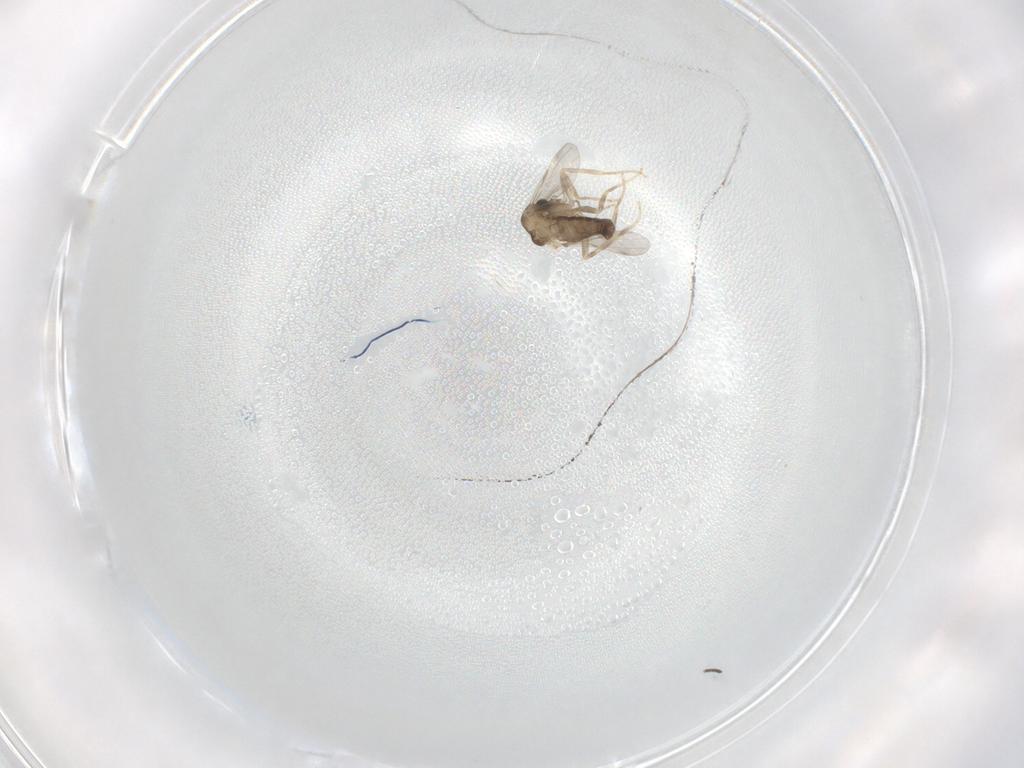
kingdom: Animalia
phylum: Arthropoda
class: Insecta
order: Diptera
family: Ceratopogonidae
